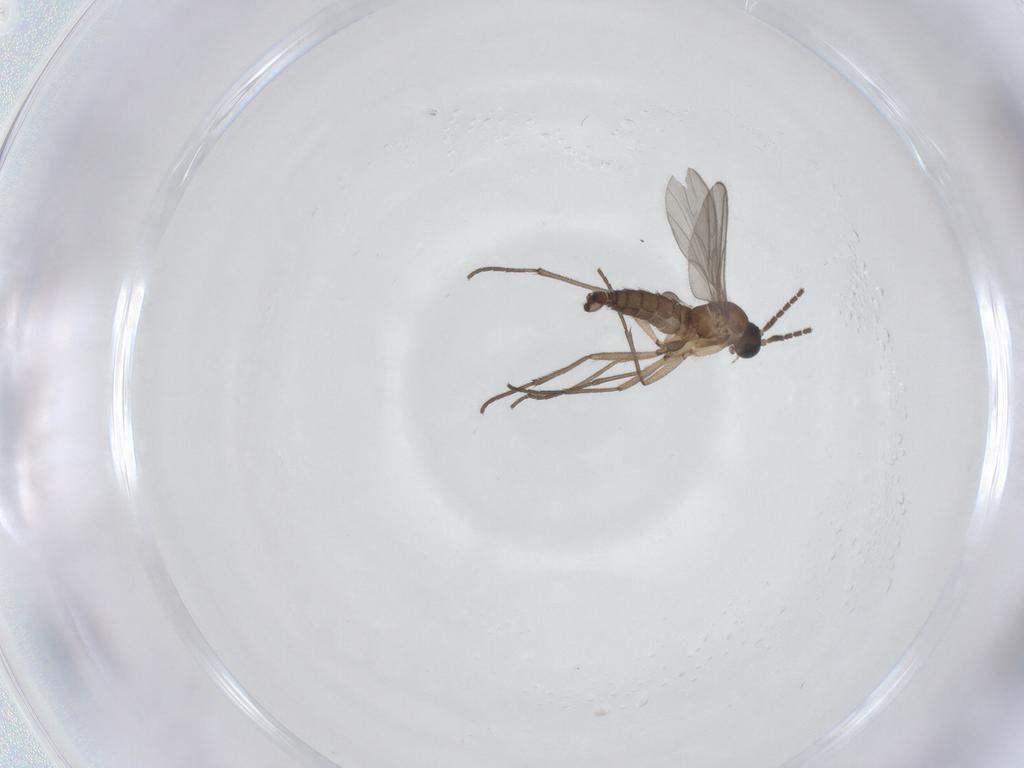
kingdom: Animalia
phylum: Arthropoda
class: Insecta
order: Diptera
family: Sciaridae
